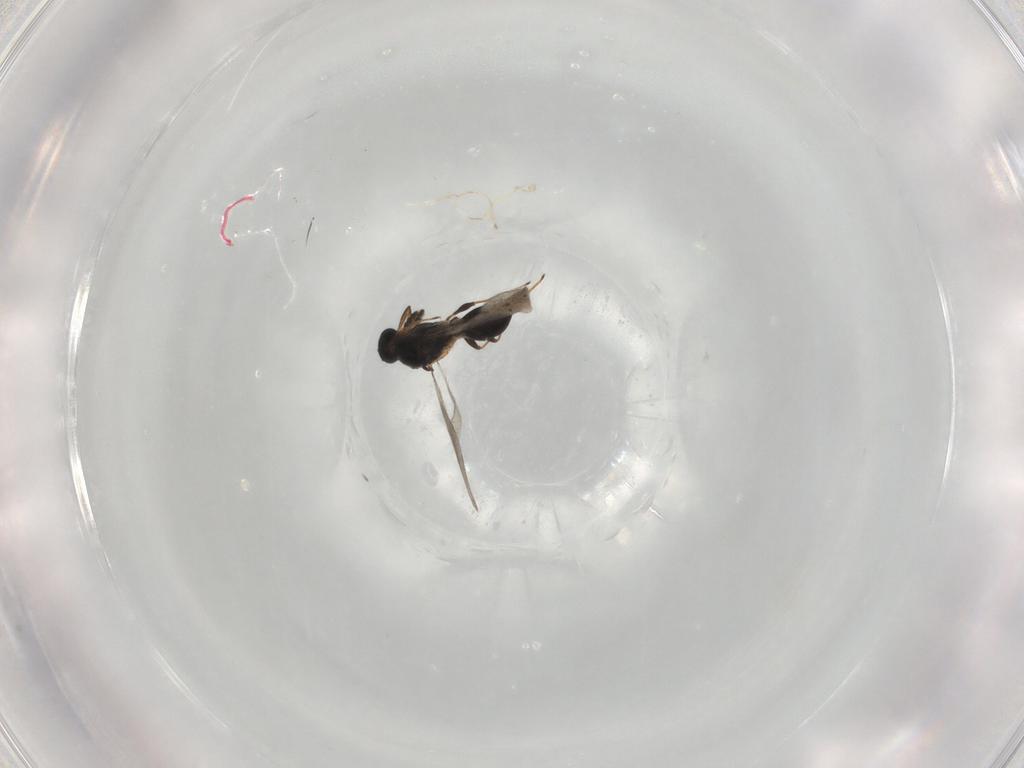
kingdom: Animalia
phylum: Arthropoda
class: Insecta
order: Hymenoptera
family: Platygastridae
